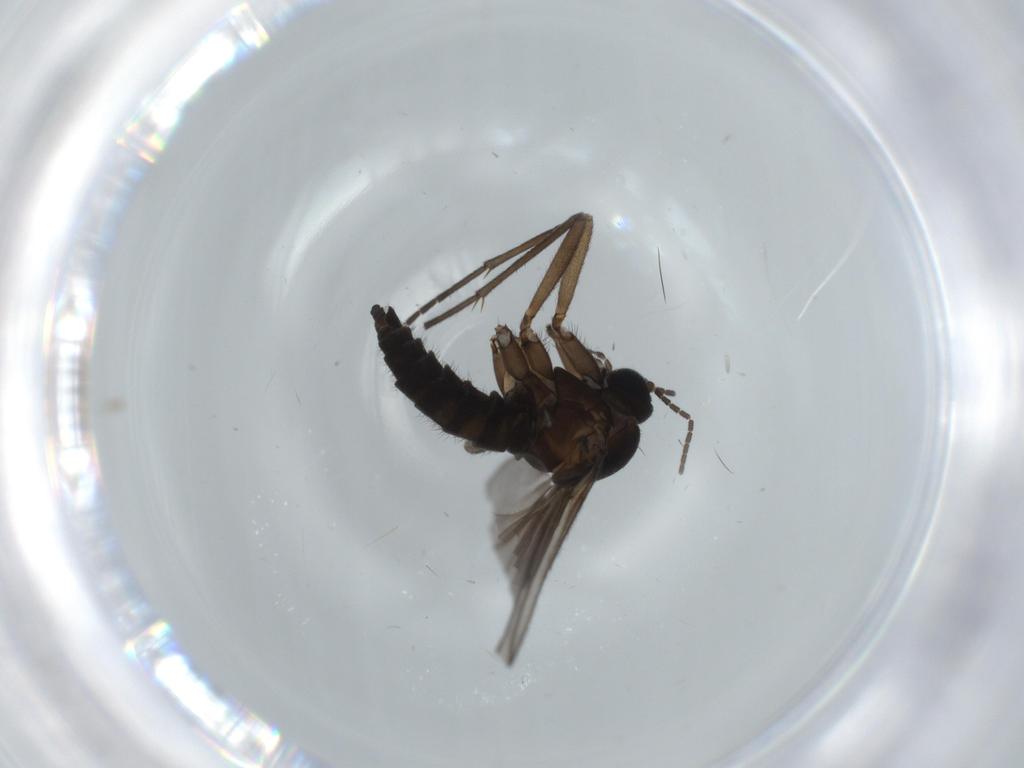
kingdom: Animalia
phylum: Arthropoda
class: Insecta
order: Diptera
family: Sciaridae
